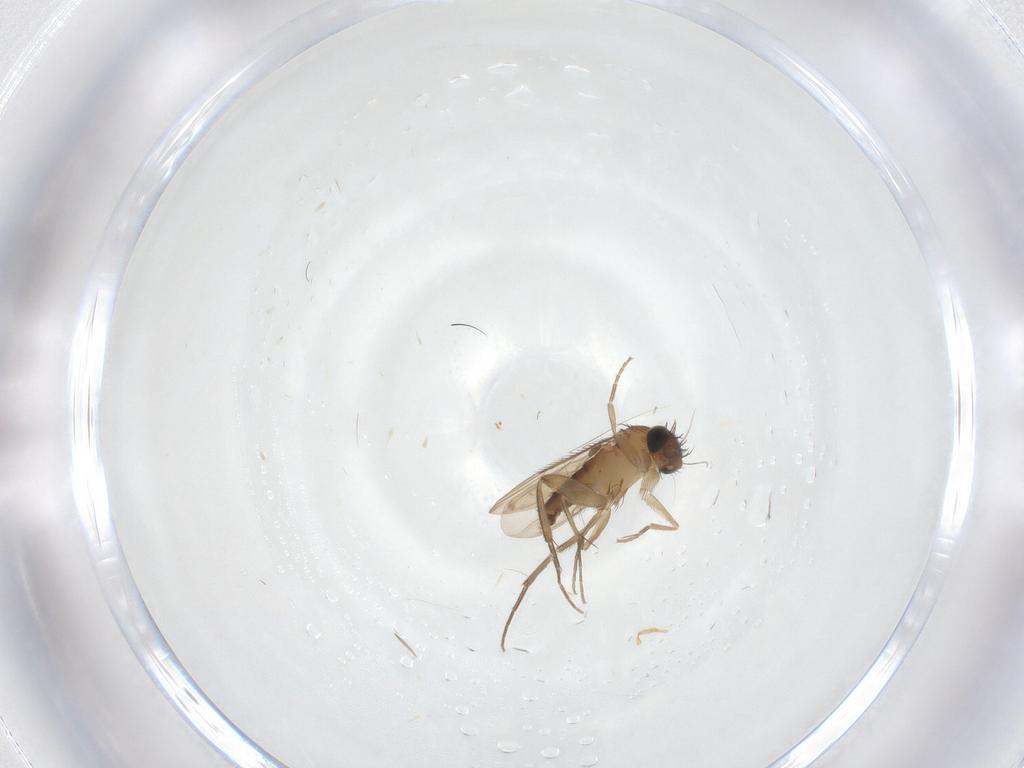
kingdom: Animalia
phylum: Arthropoda
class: Insecta
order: Diptera
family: Phoridae
